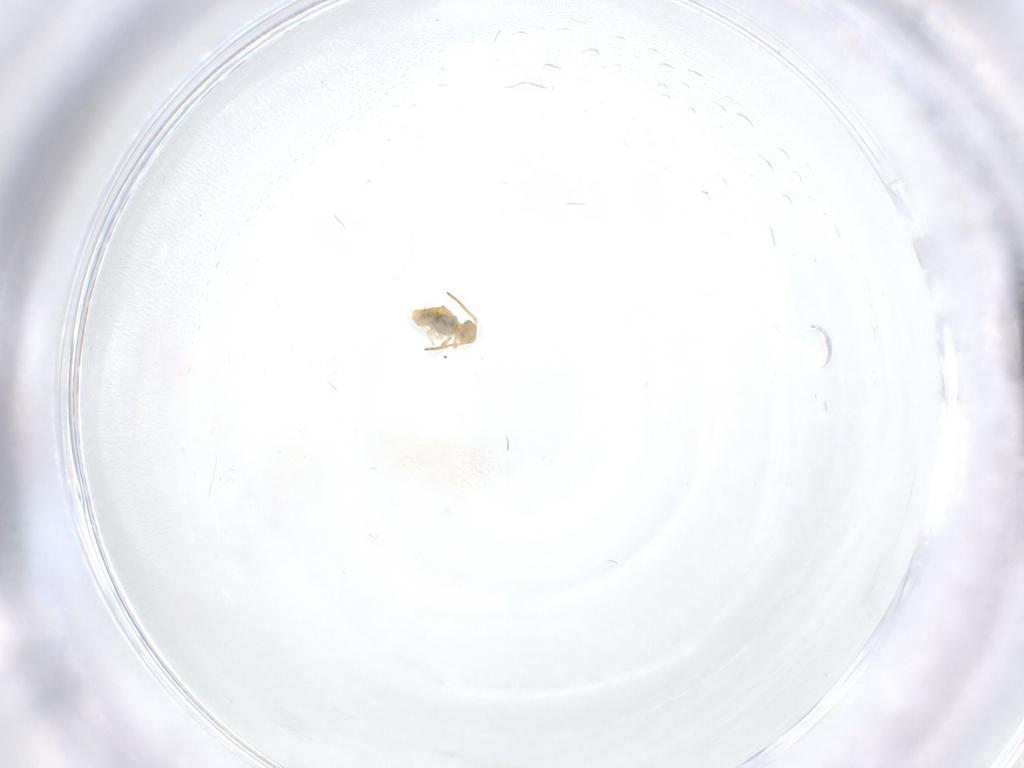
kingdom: Animalia
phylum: Arthropoda
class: Collembola
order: Symphypleona
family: Katiannidae
